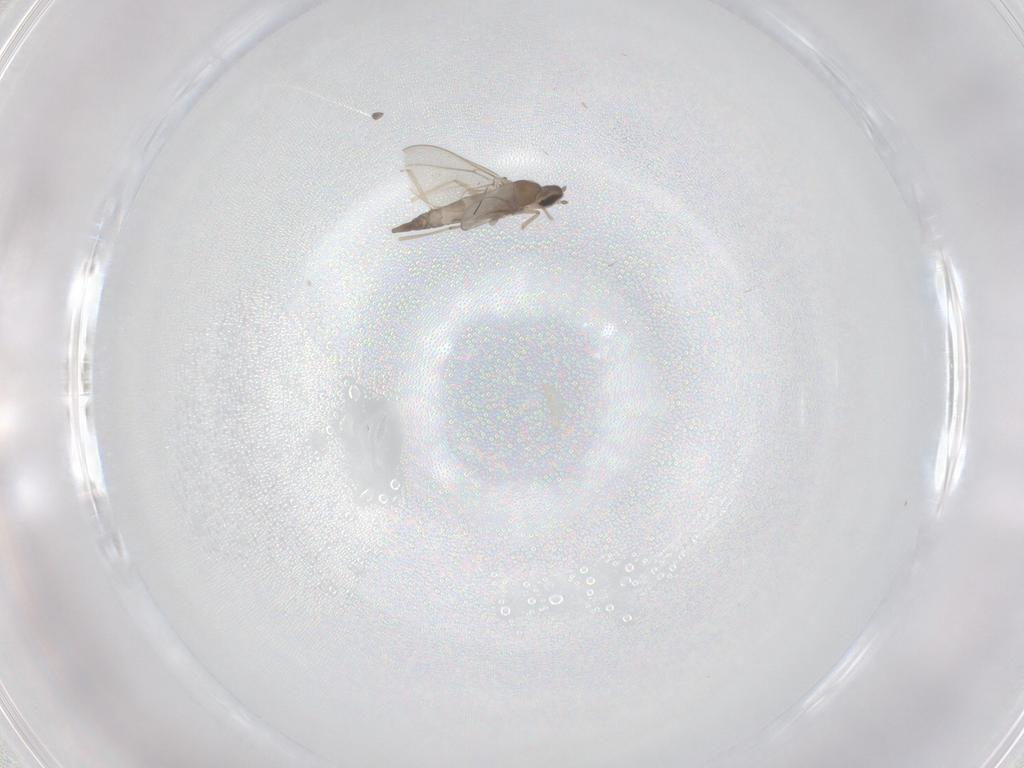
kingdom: Animalia
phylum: Arthropoda
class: Insecta
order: Diptera
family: Cecidomyiidae
